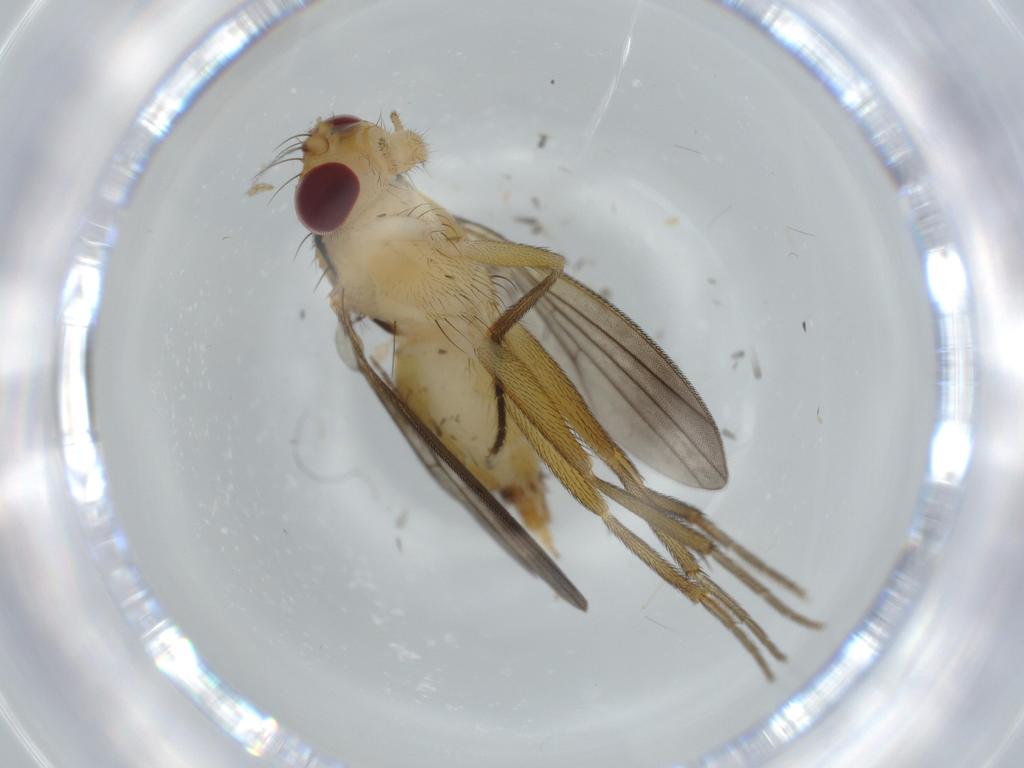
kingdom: Animalia
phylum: Arthropoda
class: Insecta
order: Diptera
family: Clusiidae
